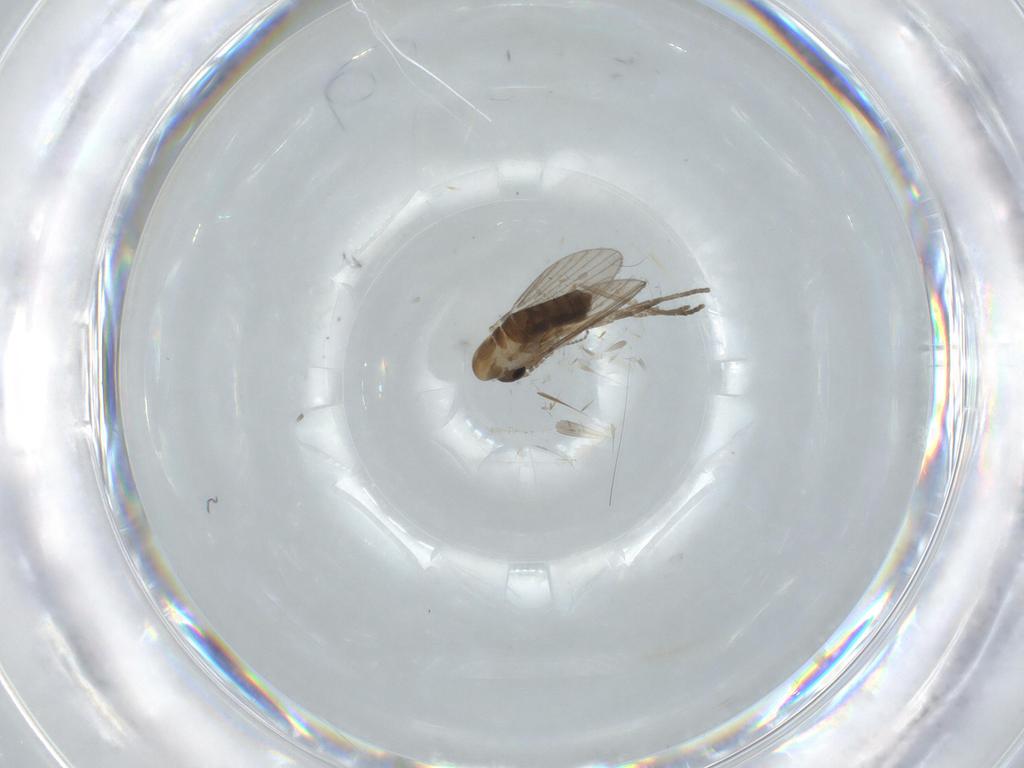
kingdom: Animalia
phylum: Arthropoda
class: Insecta
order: Diptera
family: Psychodidae
